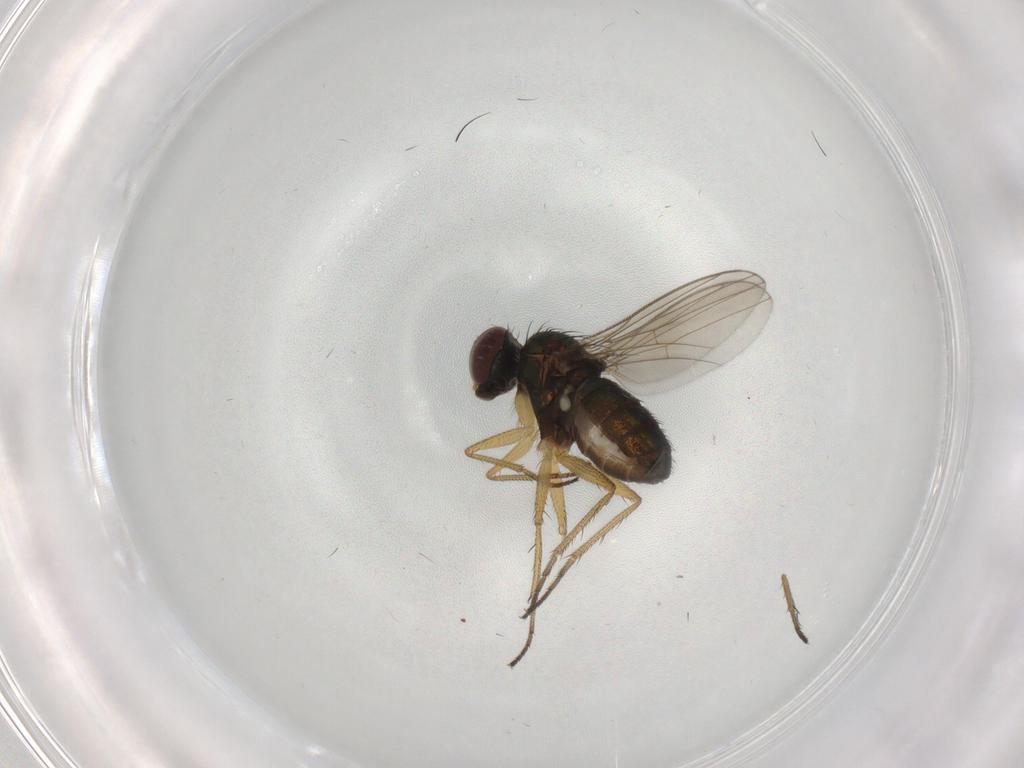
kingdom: Animalia
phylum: Arthropoda
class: Insecta
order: Diptera
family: Dolichopodidae
